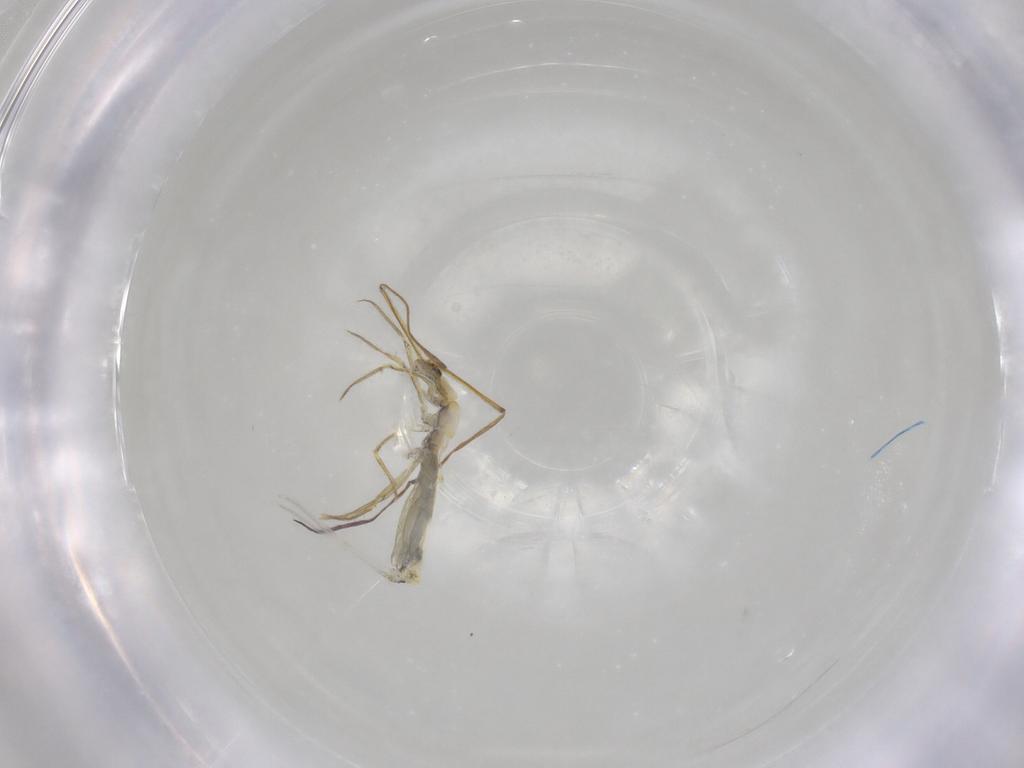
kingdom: Animalia
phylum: Arthropoda
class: Collembola
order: Entomobryomorpha
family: Entomobryidae
